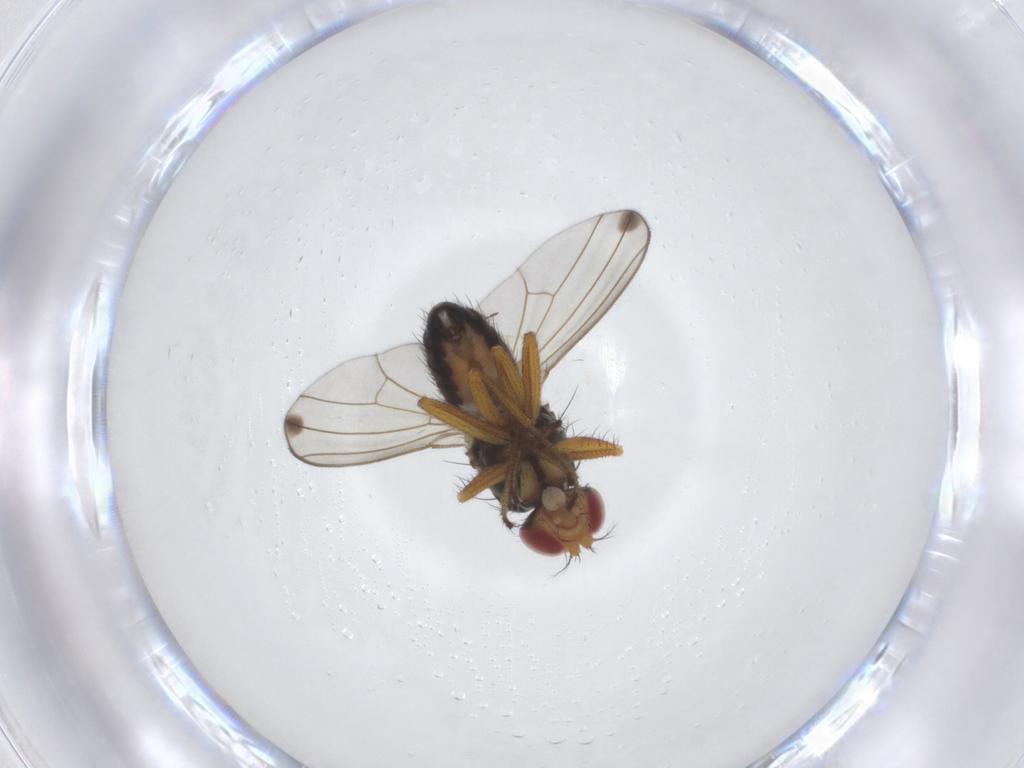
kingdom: Animalia
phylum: Arthropoda
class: Insecta
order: Diptera
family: Drosophilidae
